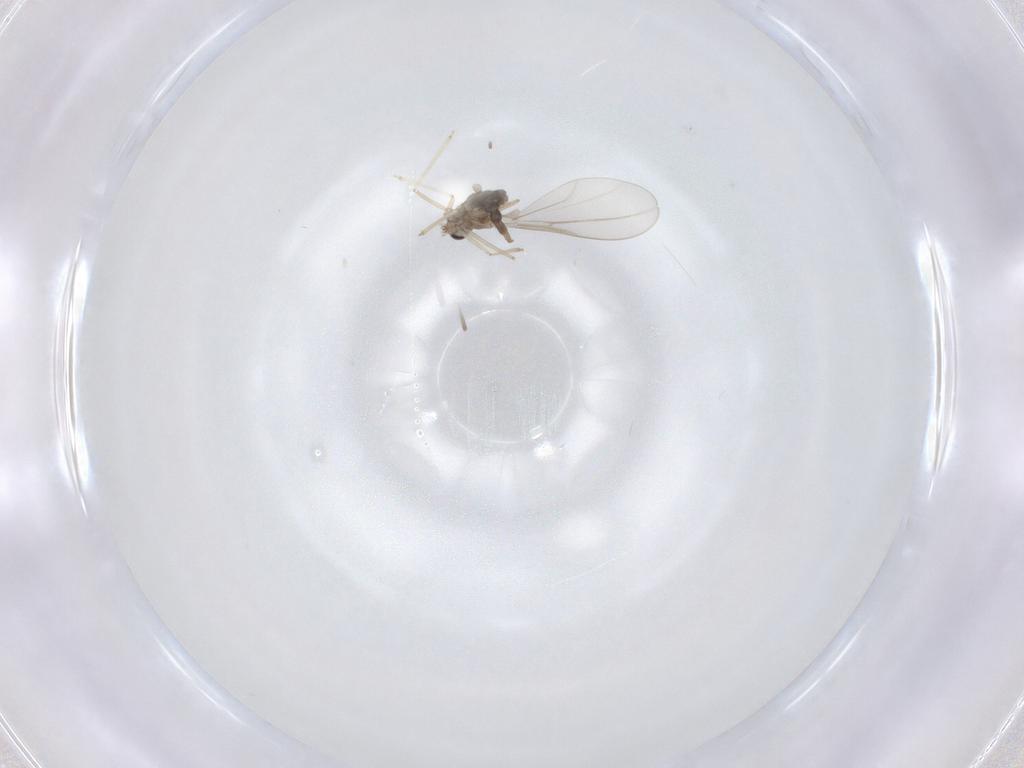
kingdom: Animalia
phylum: Arthropoda
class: Insecta
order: Diptera
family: Cecidomyiidae
